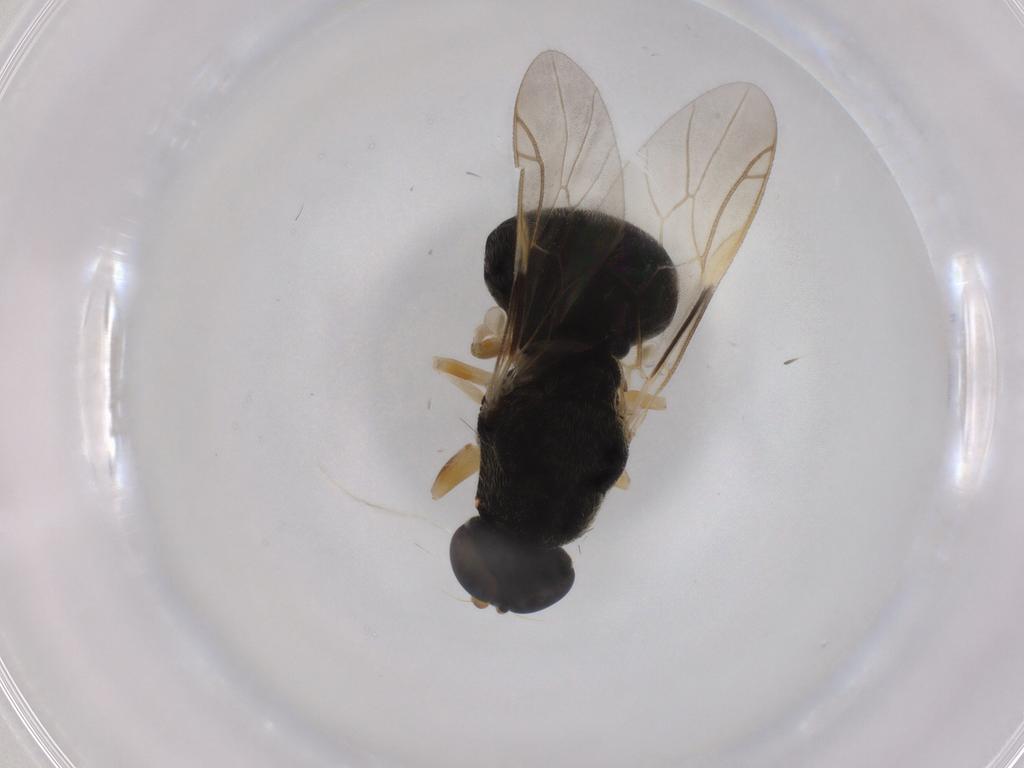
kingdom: Animalia
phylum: Arthropoda
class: Insecta
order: Diptera
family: Stratiomyidae
